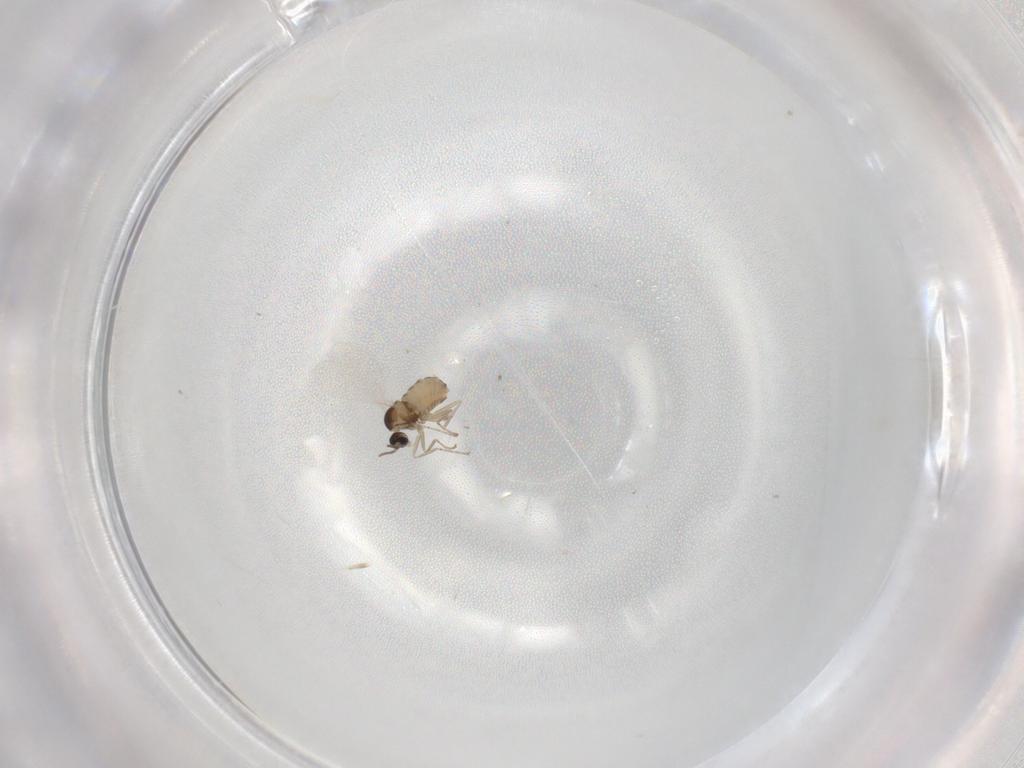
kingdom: Animalia
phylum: Arthropoda
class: Insecta
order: Diptera
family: Cecidomyiidae
